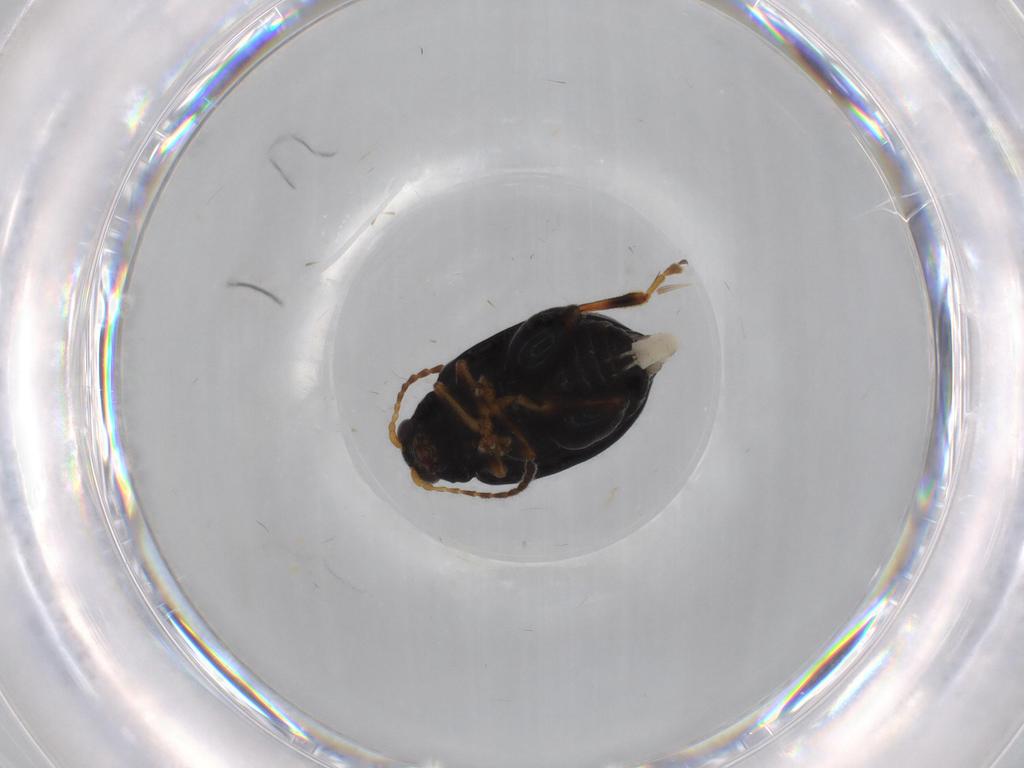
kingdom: Animalia
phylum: Arthropoda
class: Insecta
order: Coleoptera
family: Chrysomelidae
